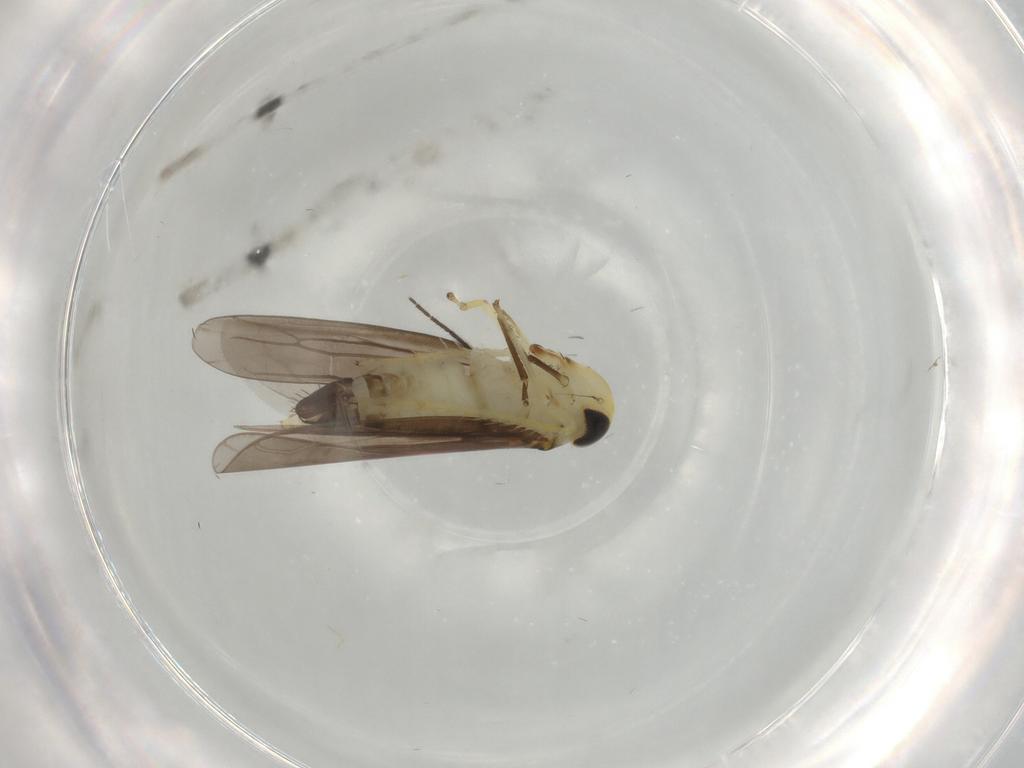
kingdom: Animalia
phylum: Arthropoda
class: Insecta
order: Hemiptera
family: Cicadellidae
